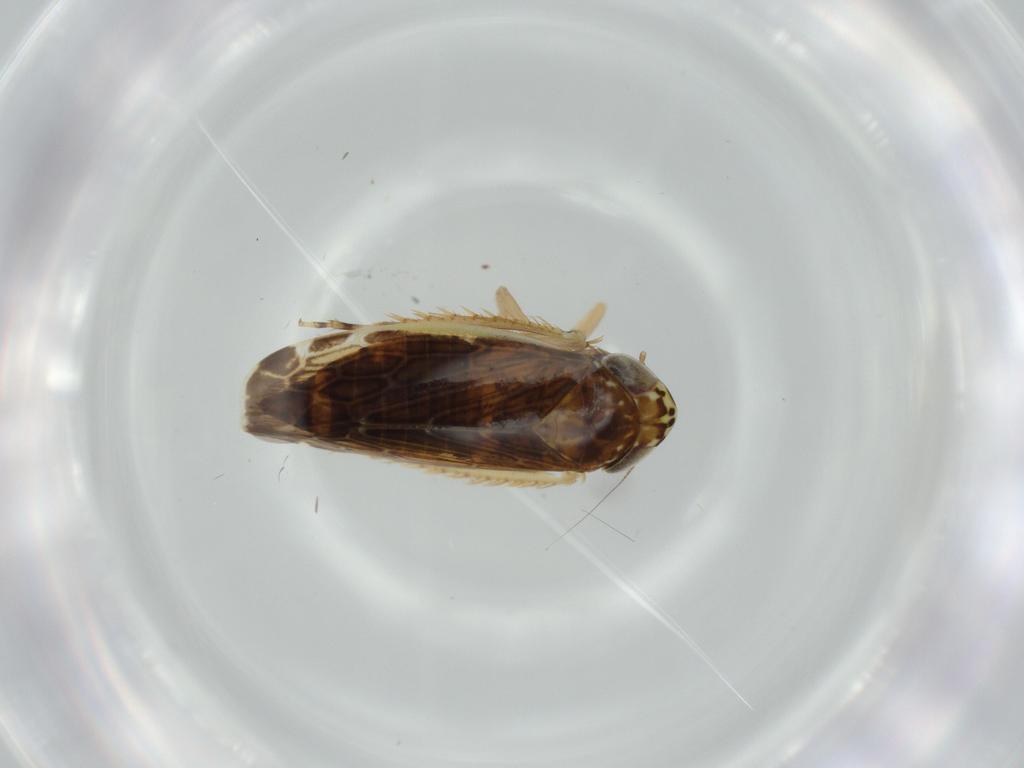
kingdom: Animalia
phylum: Arthropoda
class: Insecta
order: Hemiptera
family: Cicadellidae
